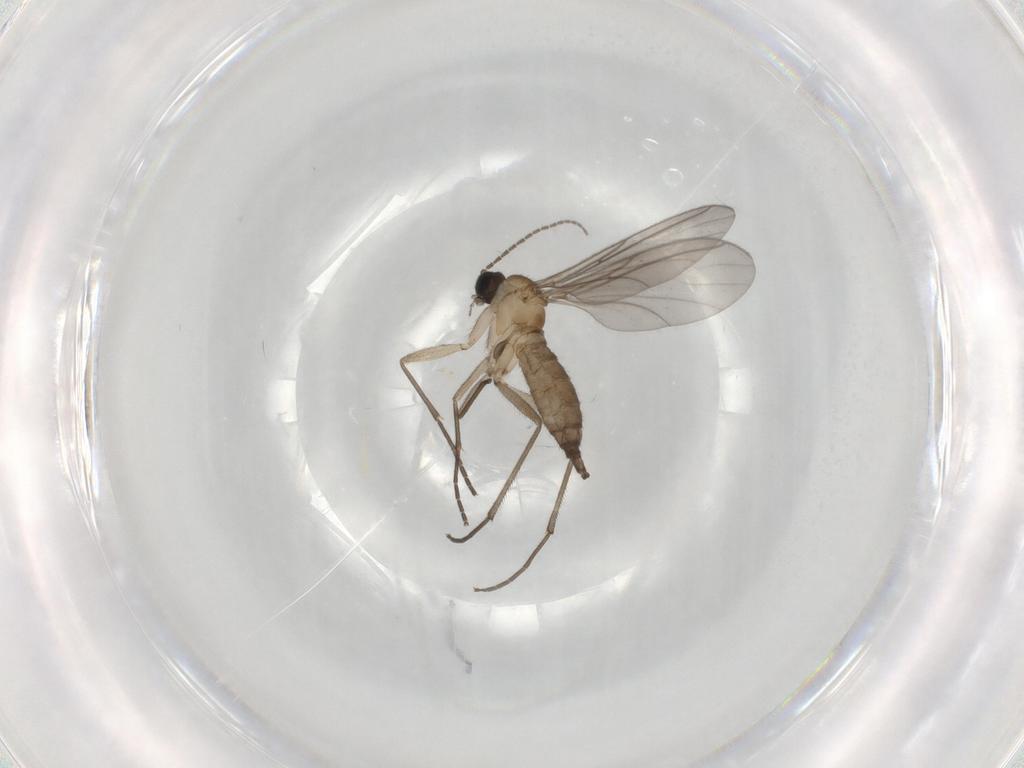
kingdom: Animalia
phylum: Arthropoda
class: Insecta
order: Diptera
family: Sciaridae
